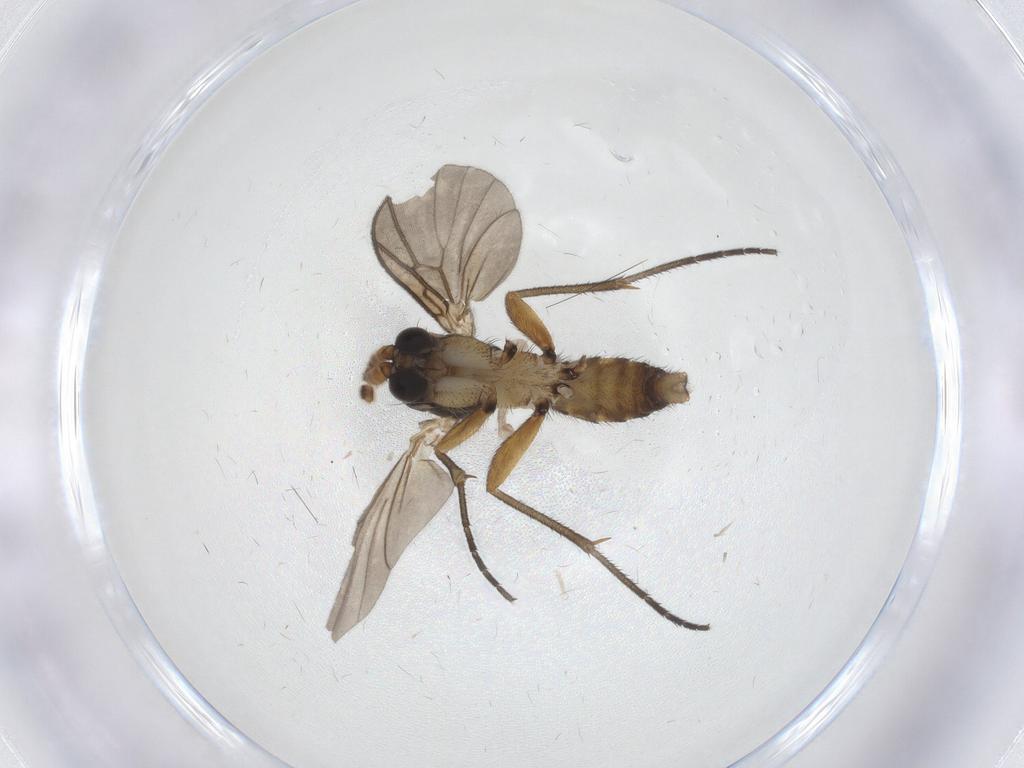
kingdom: Animalia
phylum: Arthropoda
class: Insecta
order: Diptera
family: Mycetophilidae
